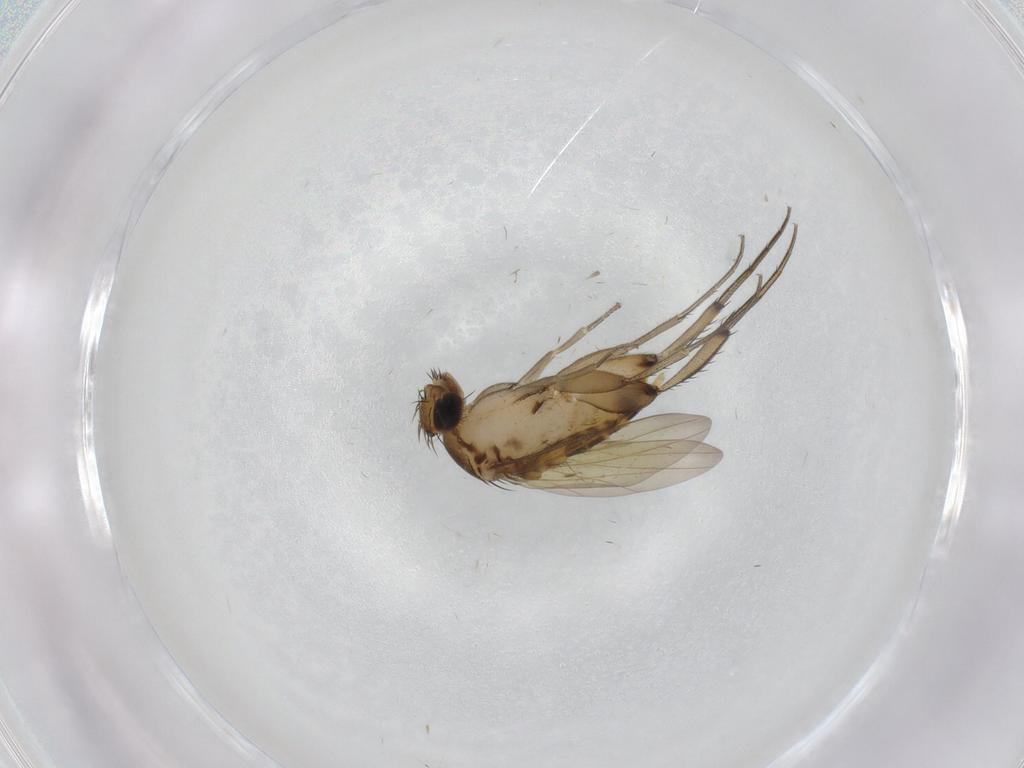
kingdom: Animalia
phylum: Arthropoda
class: Insecta
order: Diptera
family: Phoridae
